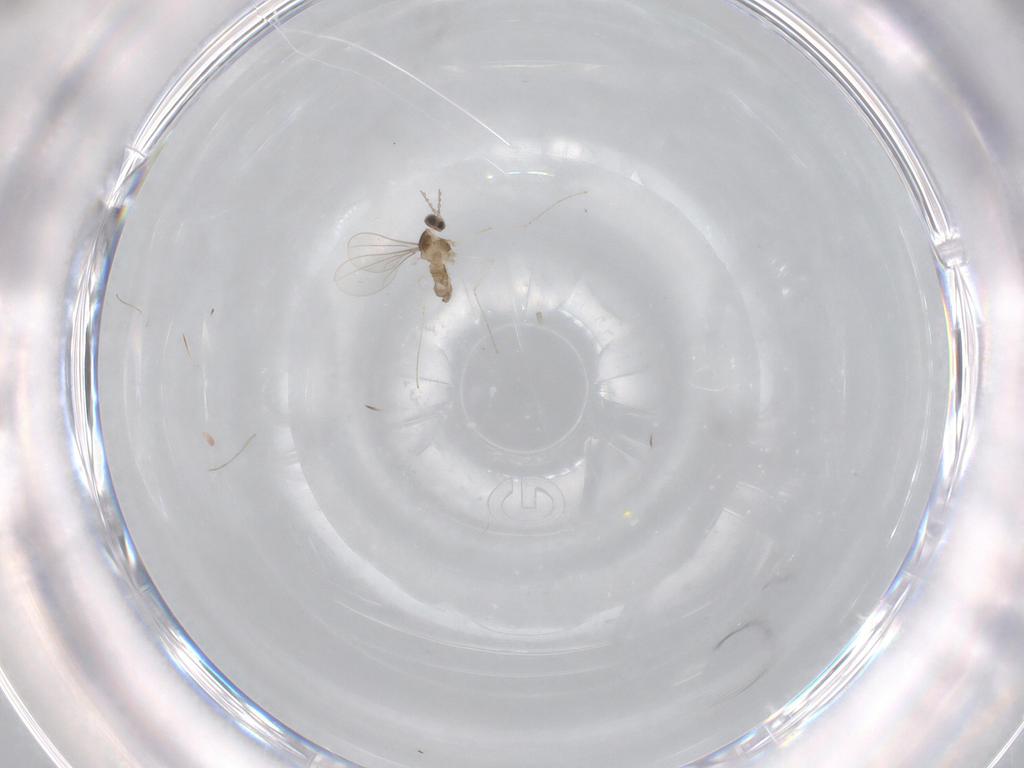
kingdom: Animalia
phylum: Arthropoda
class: Insecta
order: Diptera
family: Cecidomyiidae
